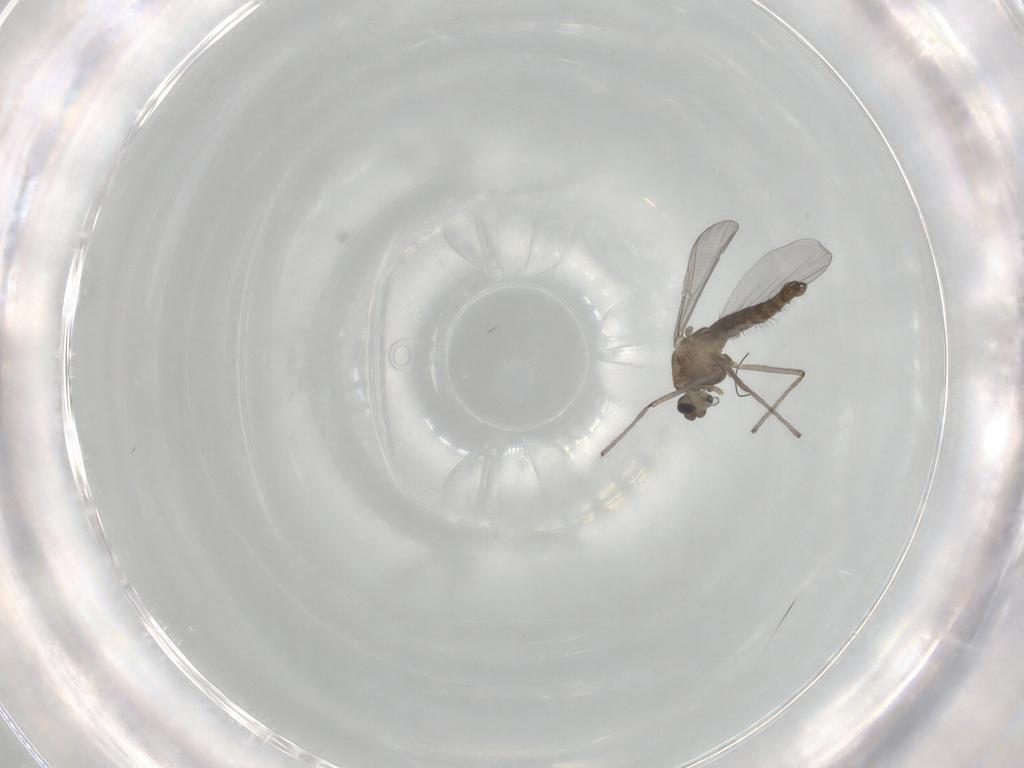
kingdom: Animalia
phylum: Arthropoda
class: Insecta
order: Diptera
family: Chironomidae
